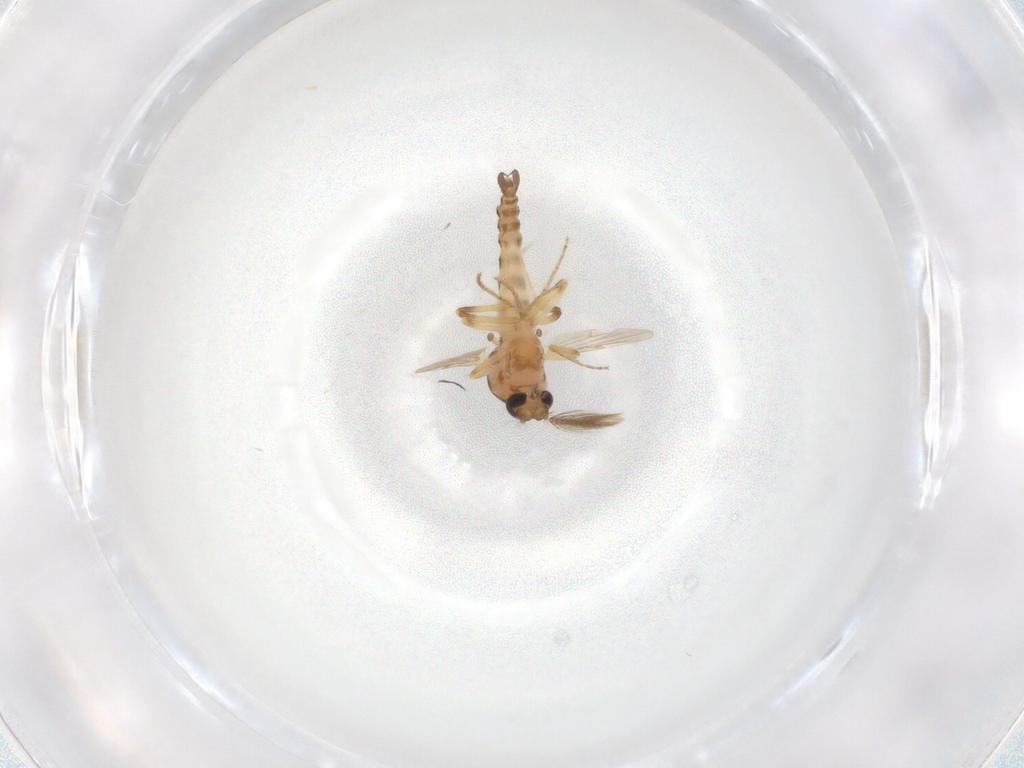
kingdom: Animalia
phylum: Arthropoda
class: Insecta
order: Diptera
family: Ceratopogonidae
